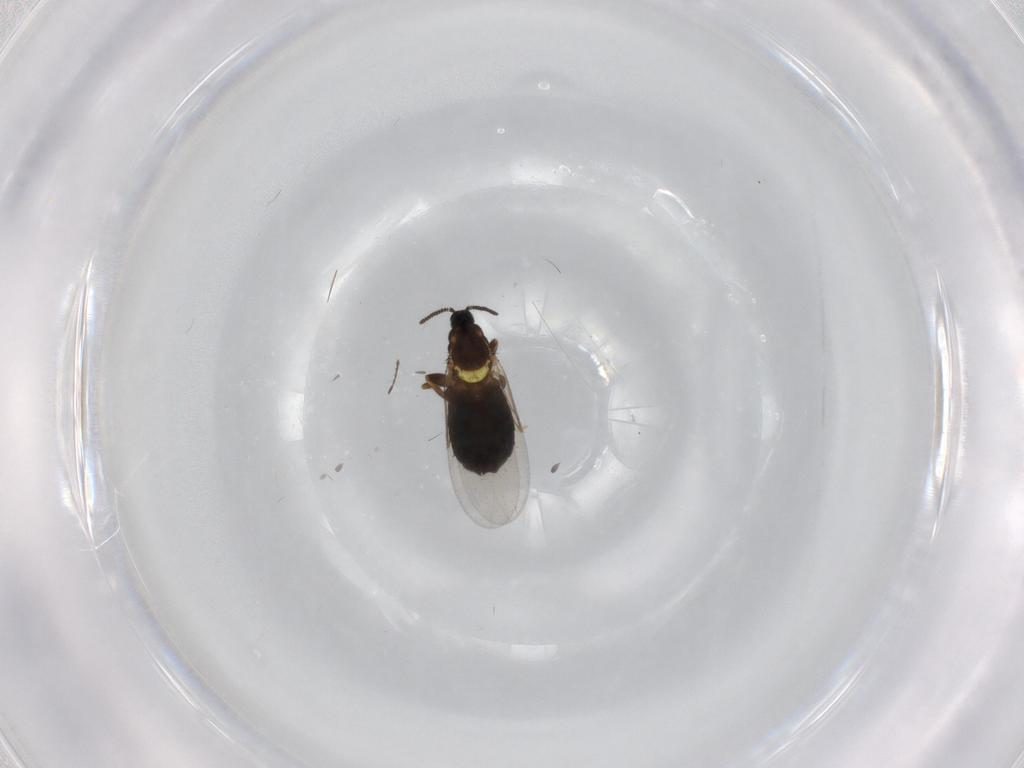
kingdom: Animalia
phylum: Arthropoda
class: Insecta
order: Diptera
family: Scatopsidae
